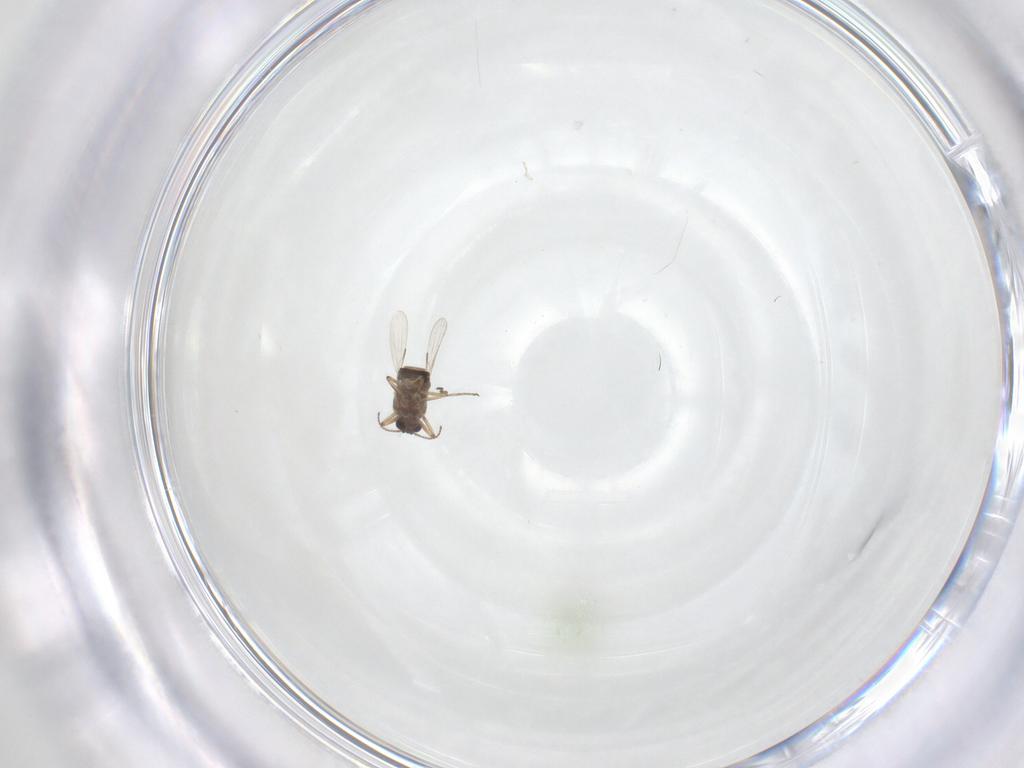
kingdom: Animalia
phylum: Arthropoda
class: Insecta
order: Diptera
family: Ceratopogonidae
